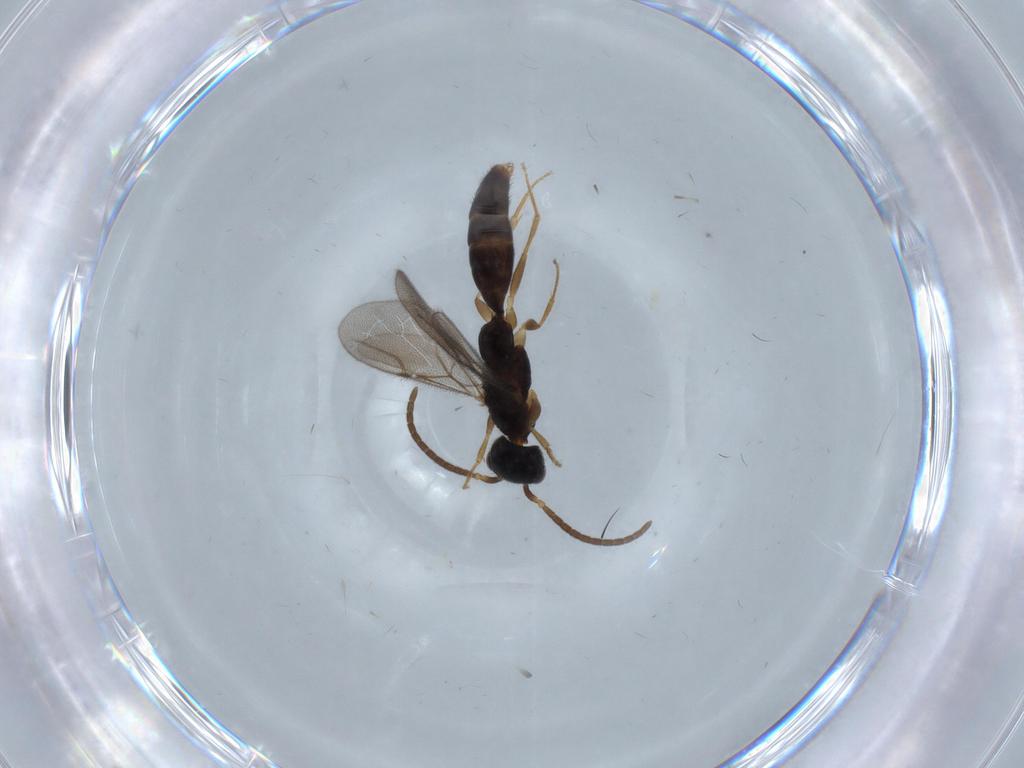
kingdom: Animalia
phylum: Arthropoda
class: Insecta
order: Hymenoptera
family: Bethylidae
